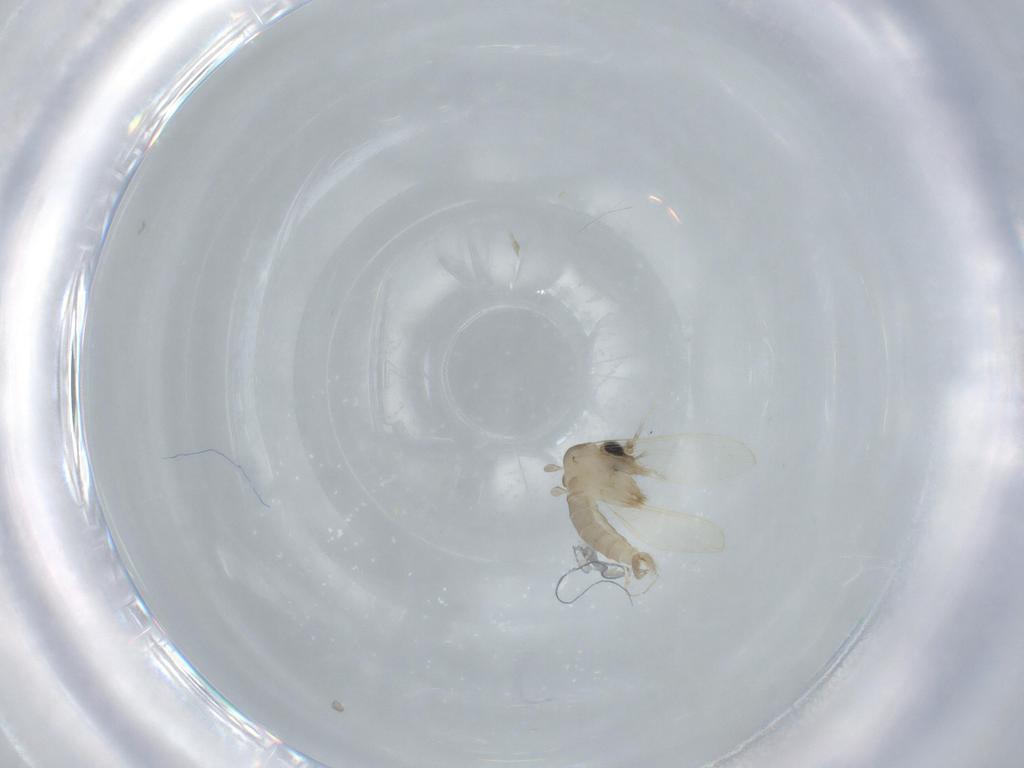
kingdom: Animalia
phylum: Arthropoda
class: Insecta
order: Diptera
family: Psychodidae
